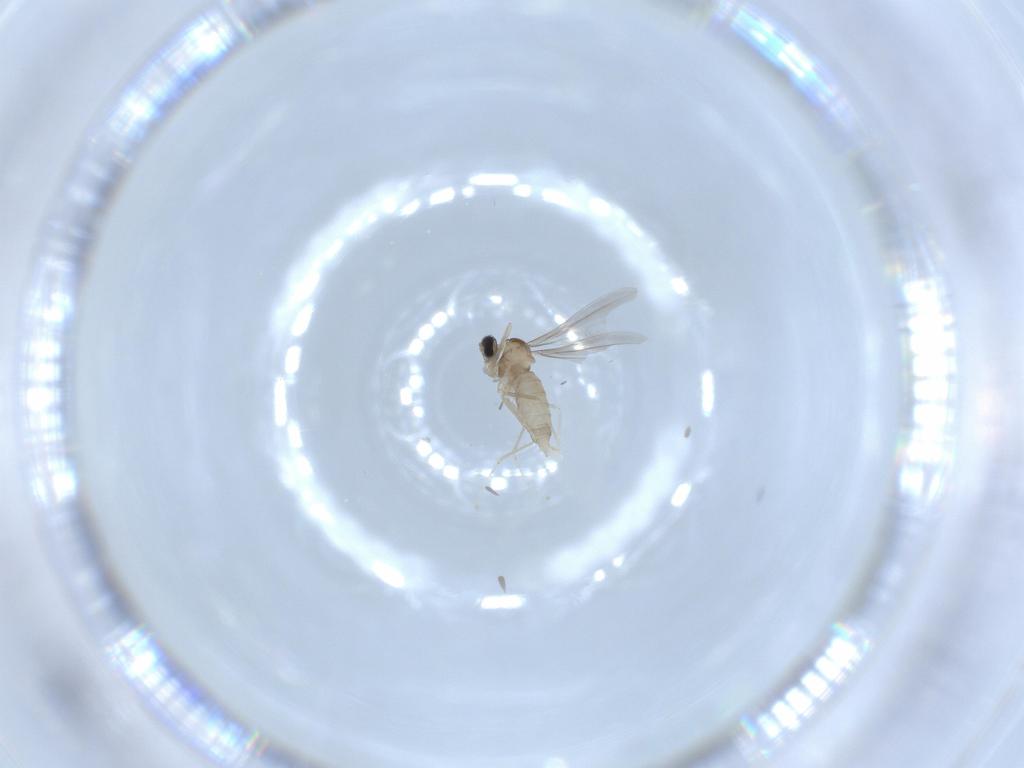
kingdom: Animalia
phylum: Arthropoda
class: Insecta
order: Diptera
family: Cecidomyiidae
